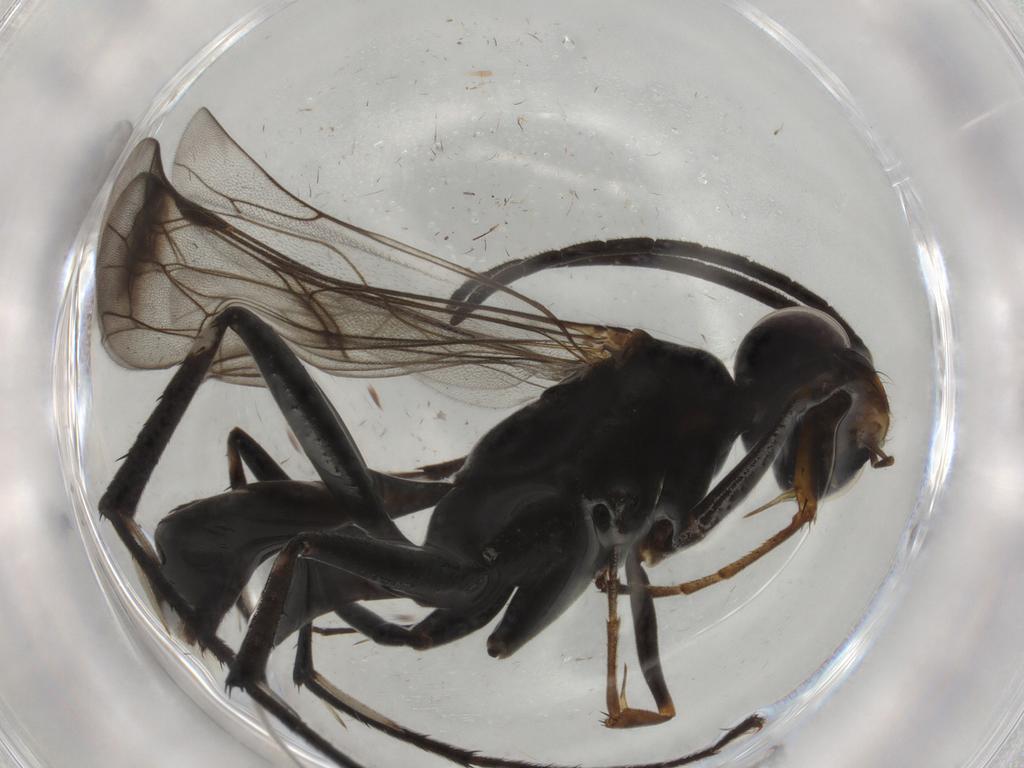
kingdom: Animalia
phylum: Arthropoda
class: Insecta
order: Hymenoptera
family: Pompilidae
